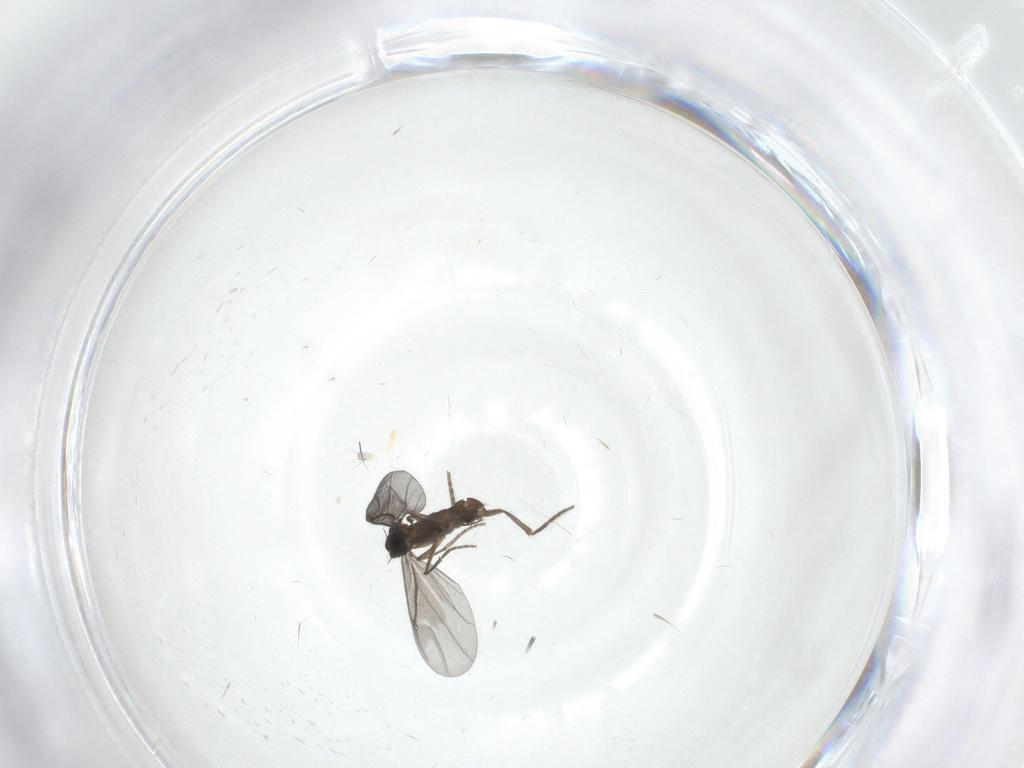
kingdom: Animalia
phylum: Arthropoda
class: Insecta
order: Diptera
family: Phoridae
